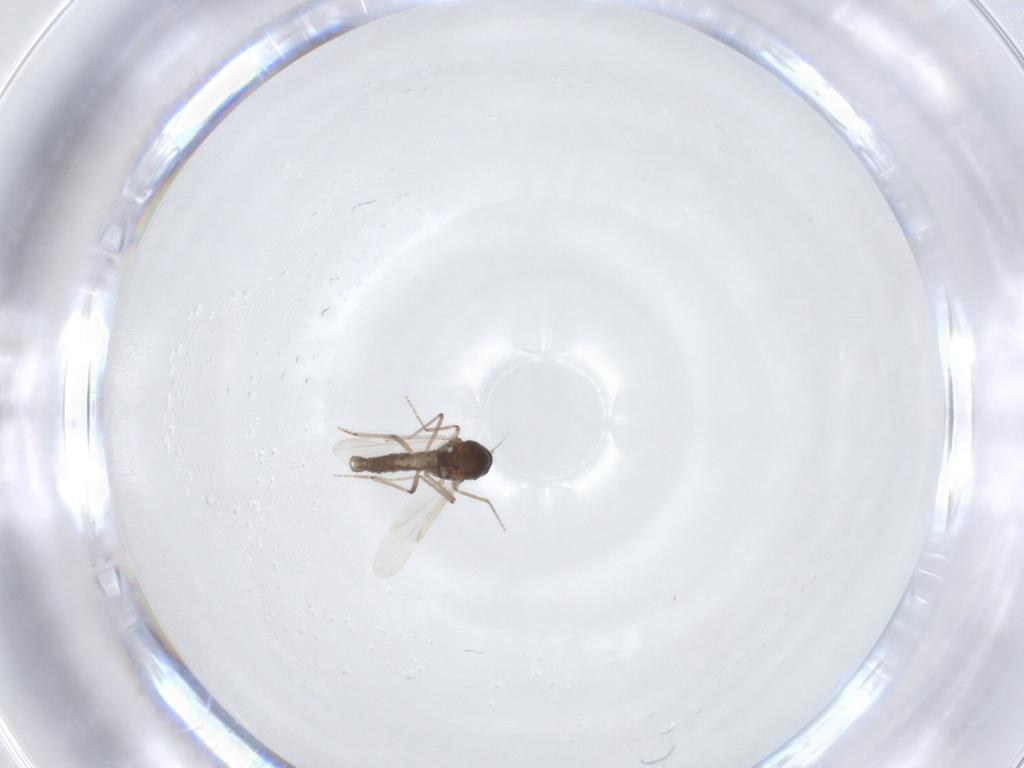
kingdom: Animalia
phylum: Arthropoda
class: Insecta
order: Diptera
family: Ceratopogonidae
